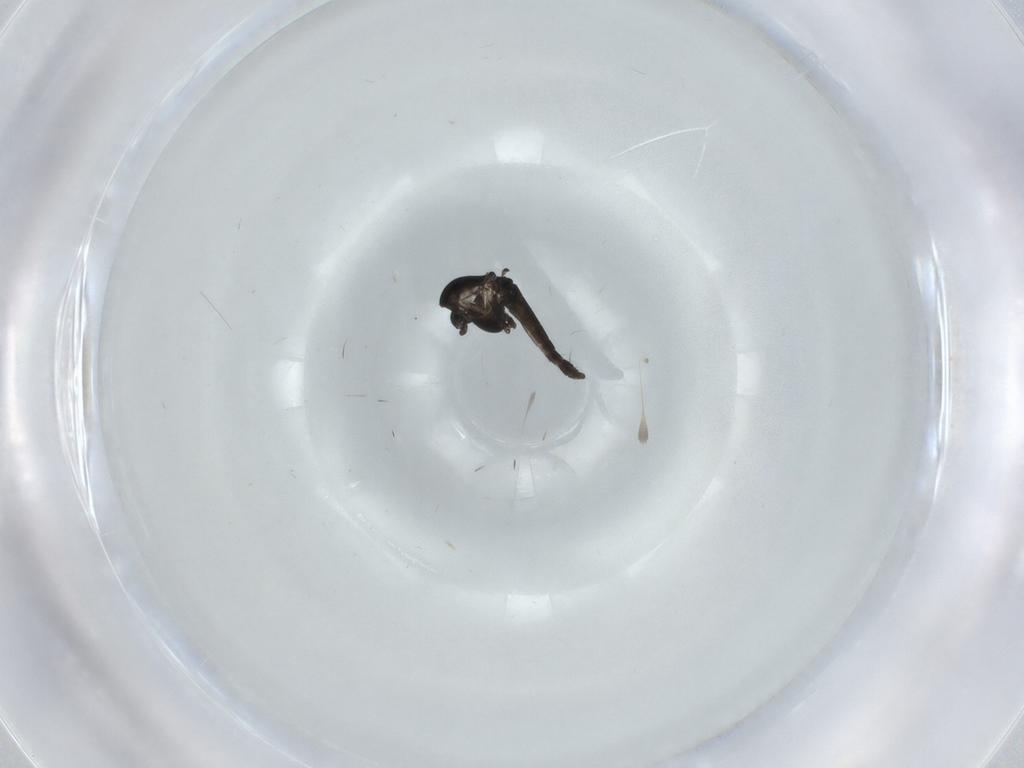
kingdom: Animalia
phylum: Arthropoda
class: Insecta
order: Diptera
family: Chironomidae
